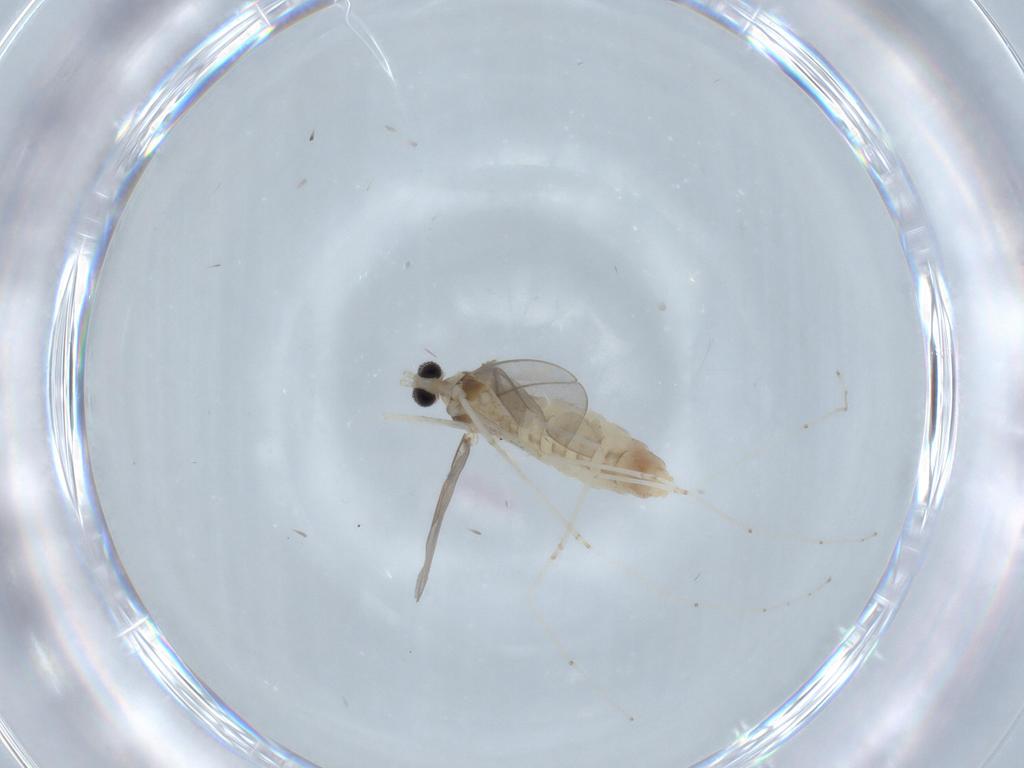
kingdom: Animalia
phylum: Arthropoda
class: Insecta
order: Diptera
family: Cecidomyiidae
